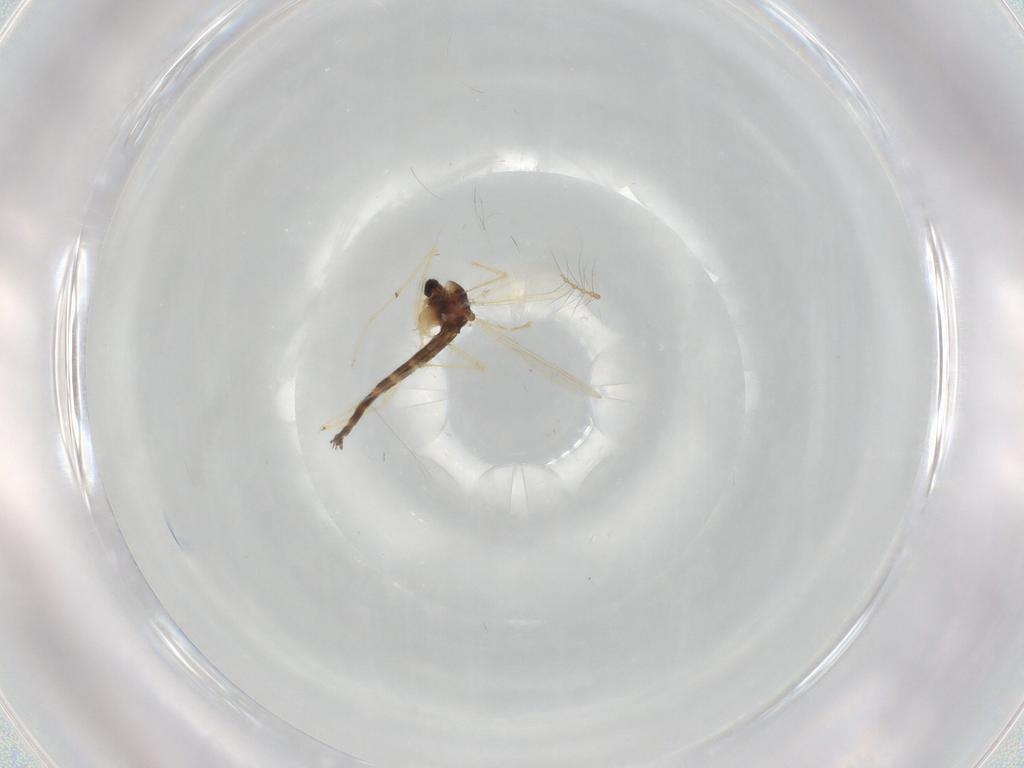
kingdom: Animalia
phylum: Arthropoda
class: Insecta
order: Diptera
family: Chironomidae
